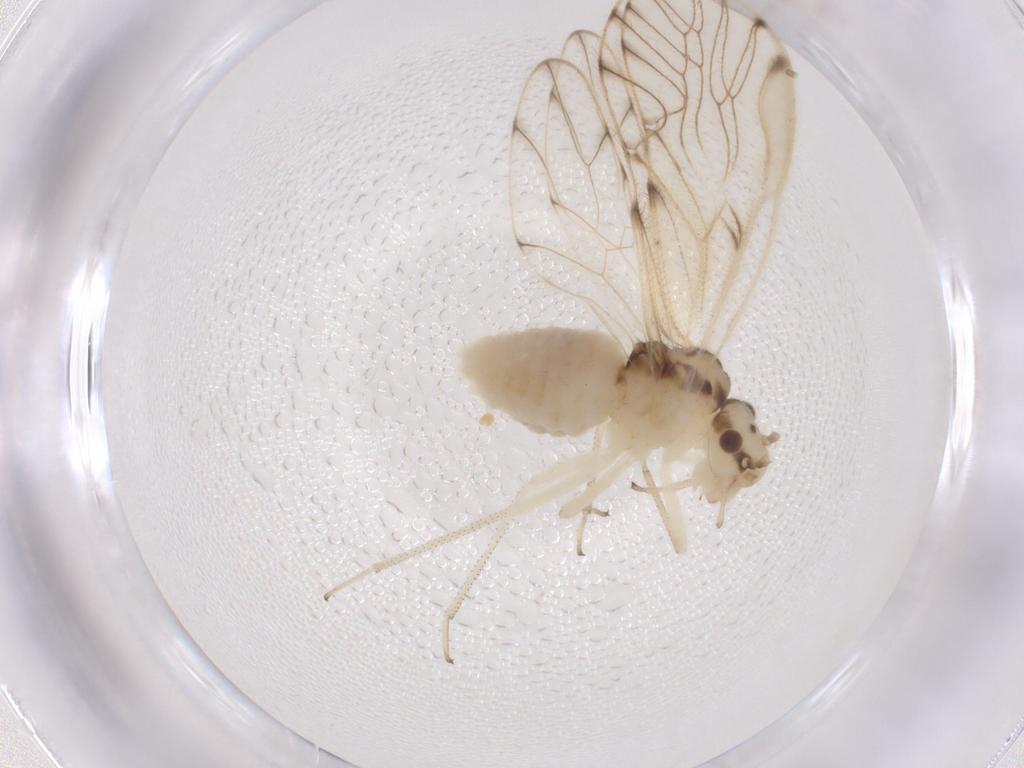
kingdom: Animalia
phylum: Arthropoda
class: Insecta
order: Psocodea
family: Philotarsidae
